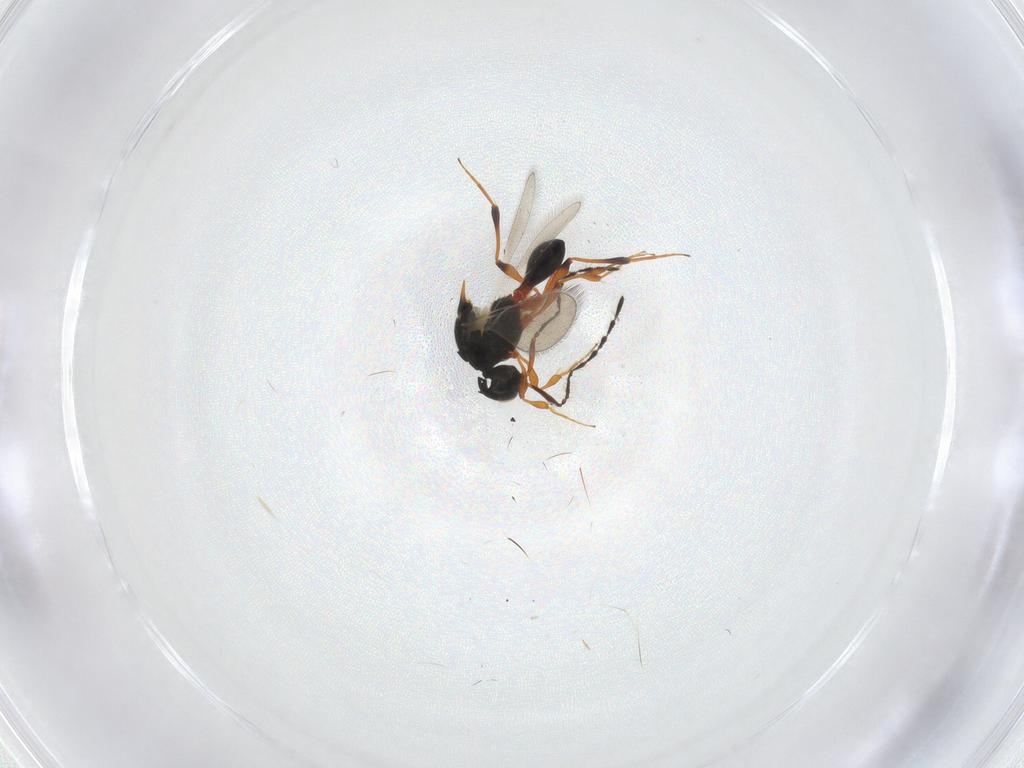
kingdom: Animalia
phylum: Arthropoda
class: Insecta
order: Hymenoptera
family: Platygastridae
